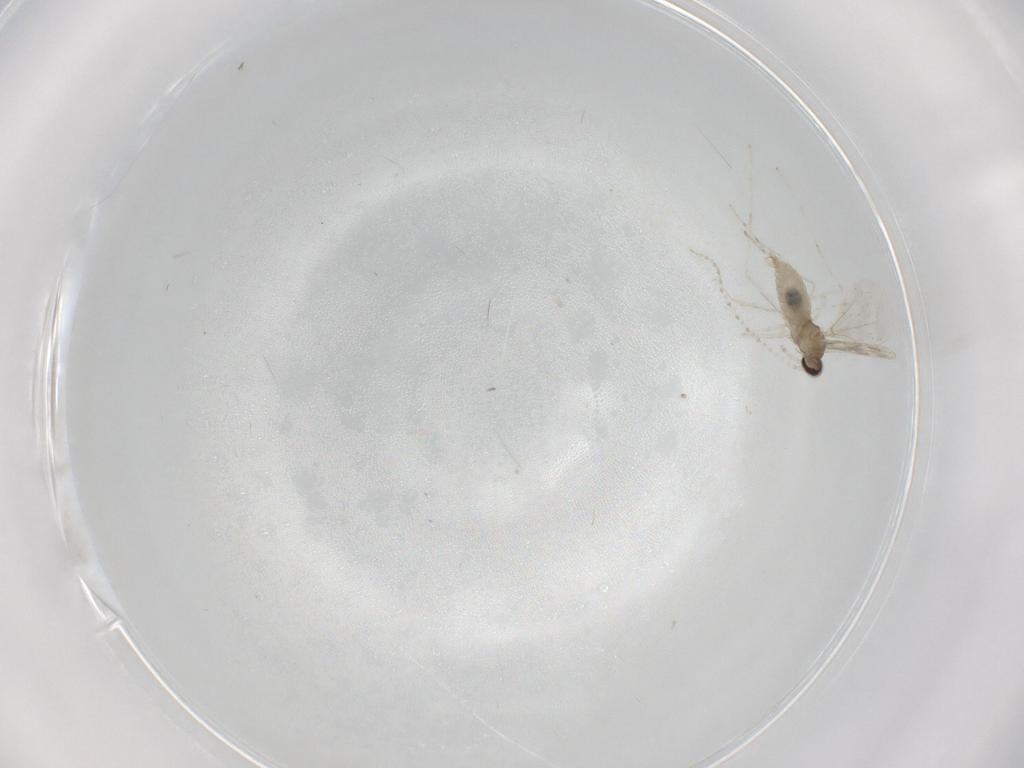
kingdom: Animalia
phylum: Arthropoda
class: Insecta
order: Diptera
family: Cecidomyiidae
